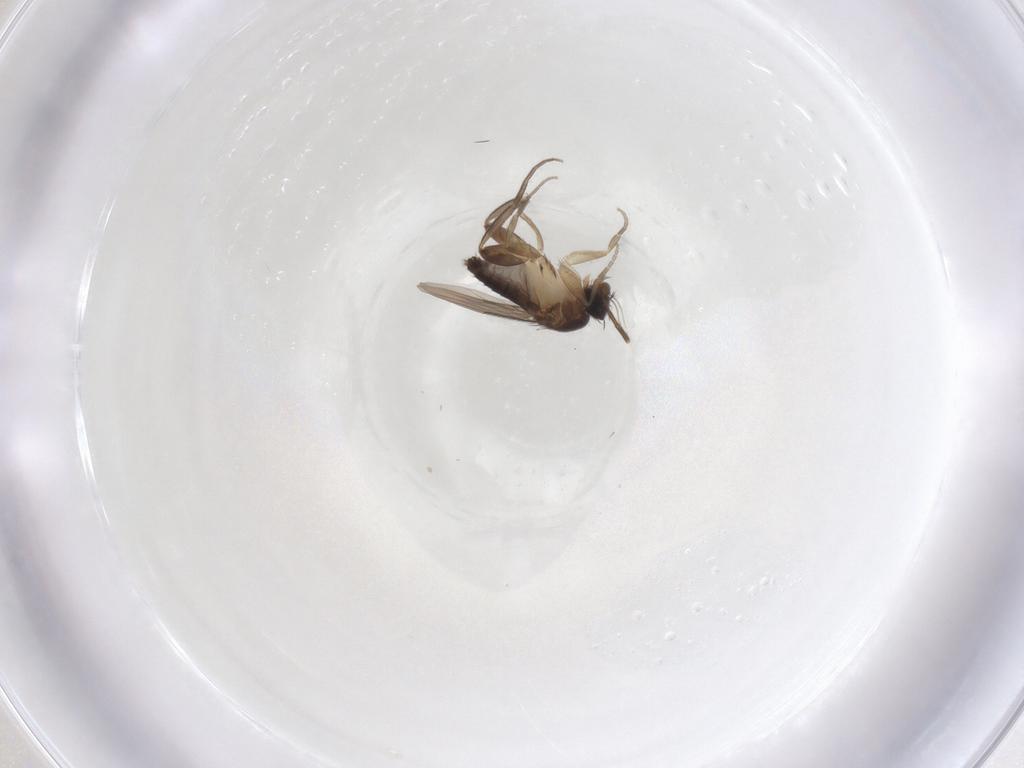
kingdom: Animalia
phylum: Arthropoda
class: Insecta
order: Diptera
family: Phoridae
